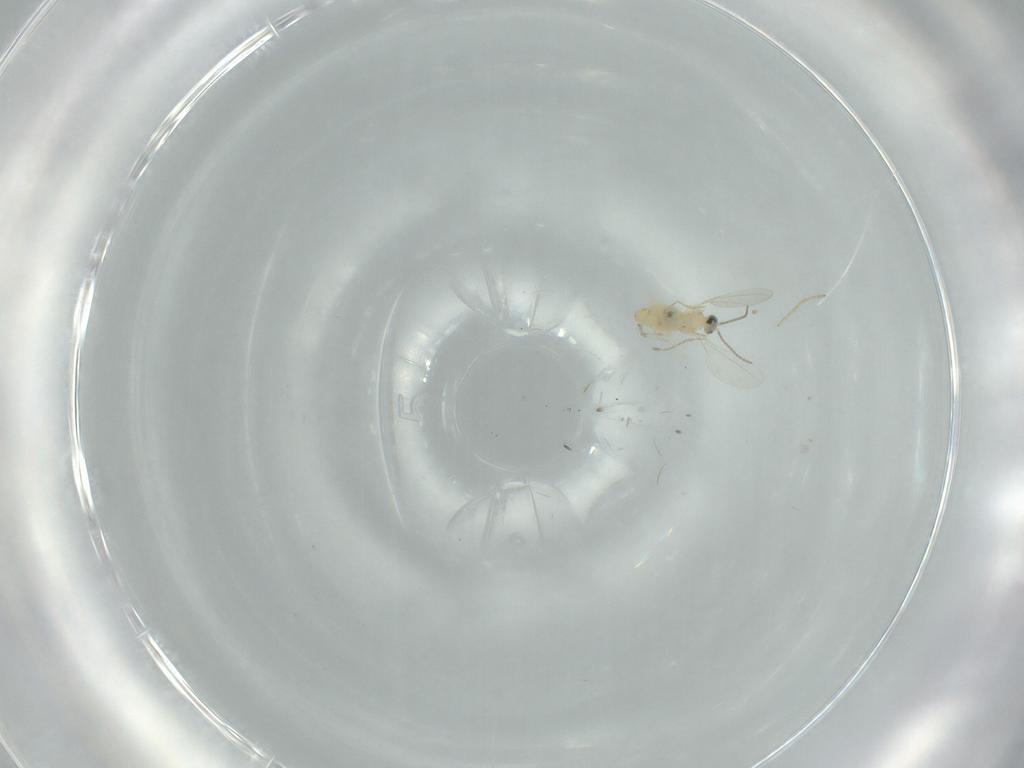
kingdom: Animalia
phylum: Arthropoda
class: Insecta
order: Diptera
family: Cecidomyiidae
